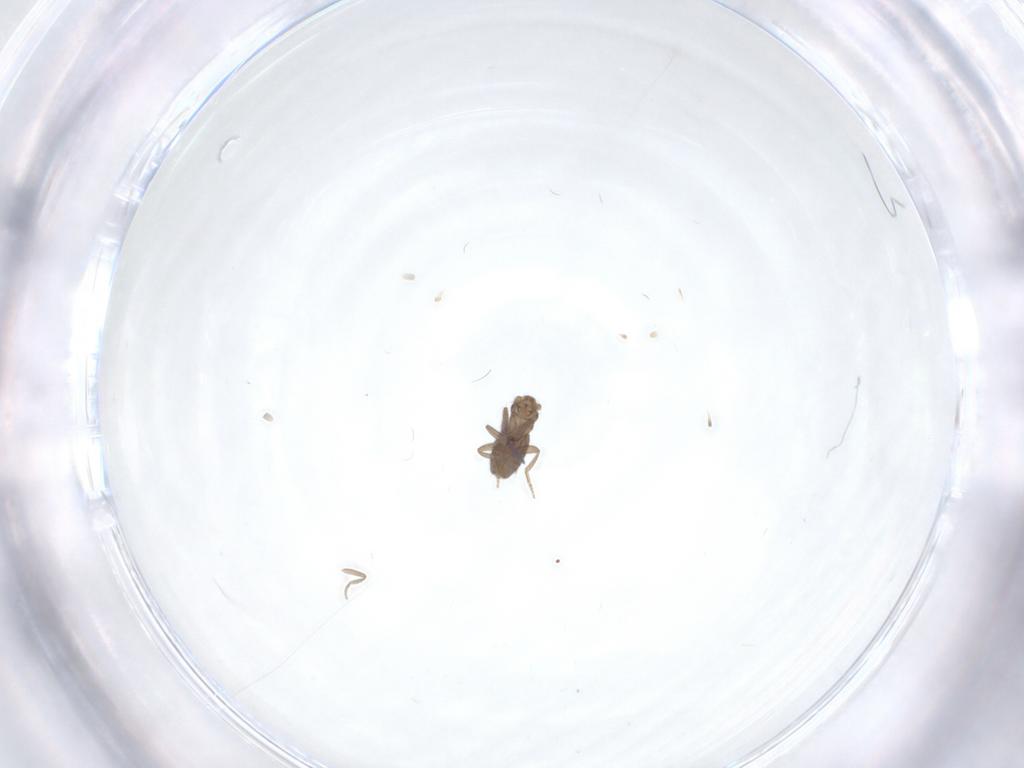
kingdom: Animalia
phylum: Arthropoda
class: Insecta
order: Diptera
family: Phoridae
